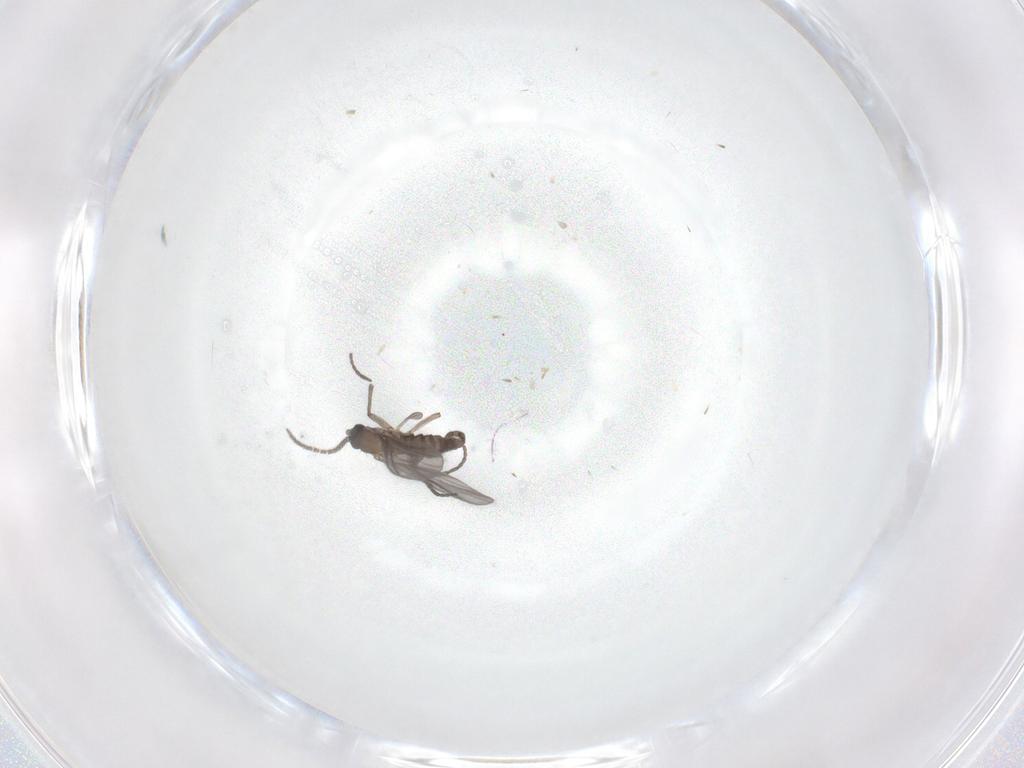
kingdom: Animalia
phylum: Arthropoda
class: Insecta
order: Diptera
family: Sciaridae
